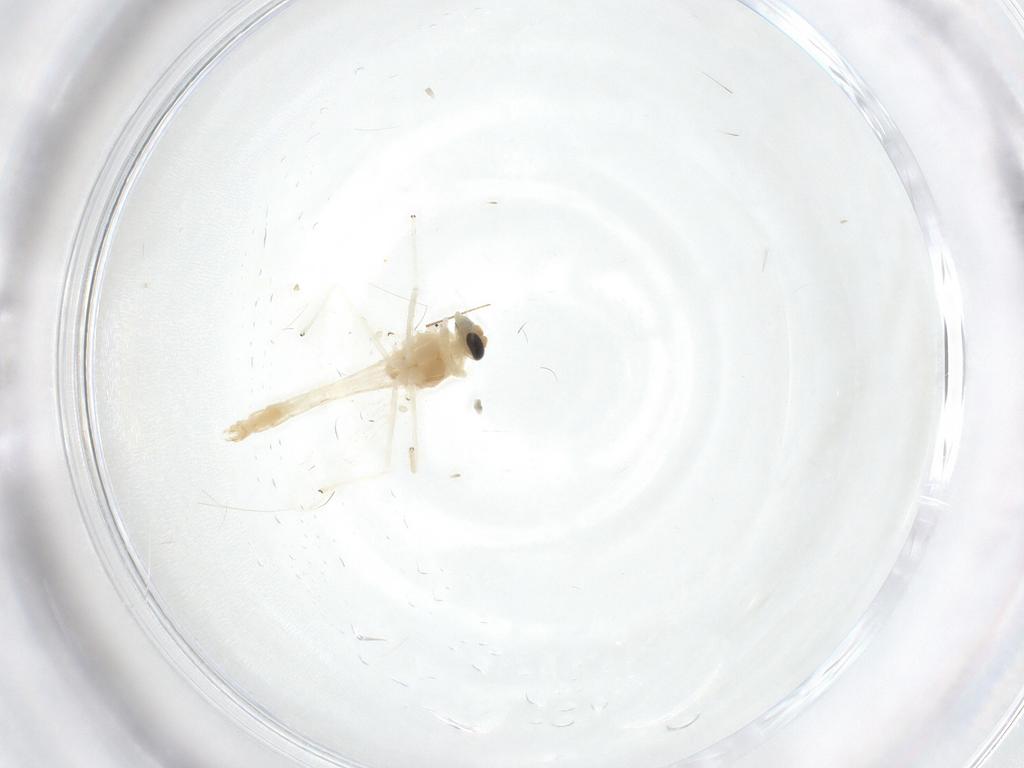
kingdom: Animalia
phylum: Arthropoda
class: Insecta
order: Diptera
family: Chironomidae
